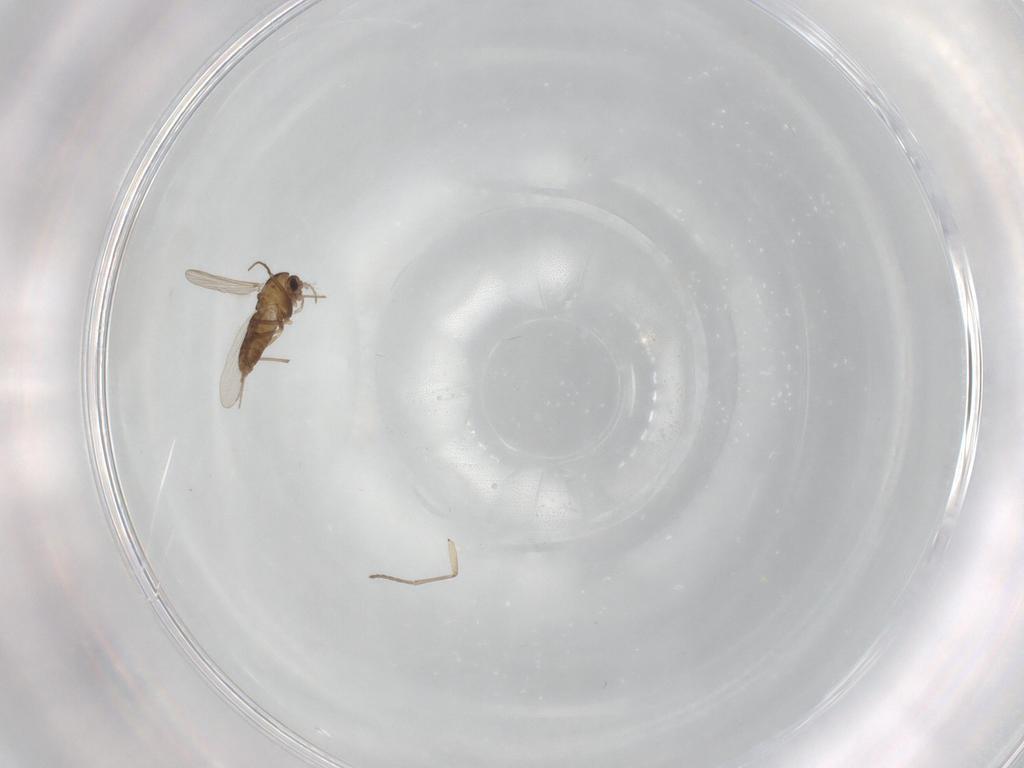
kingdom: Animalia
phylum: Arthropoda
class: Insecta
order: Diptera
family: Chironomidae
